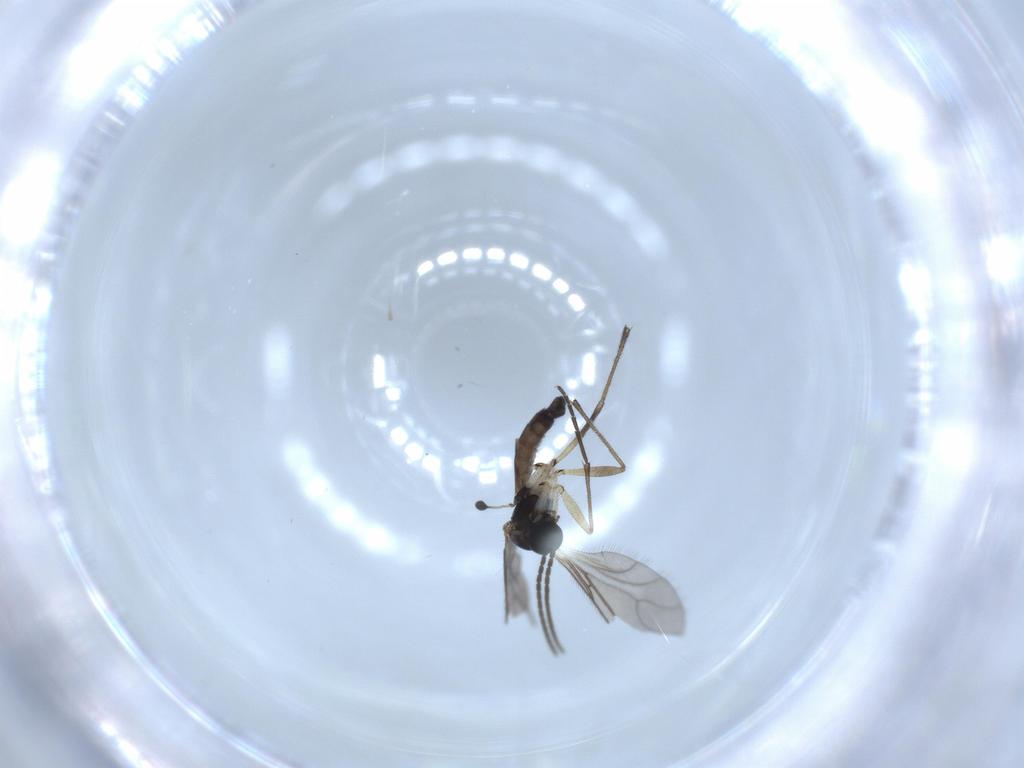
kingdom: Animalia
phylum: Arthropoda
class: Insecta
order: Diptera
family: Sciaridae
